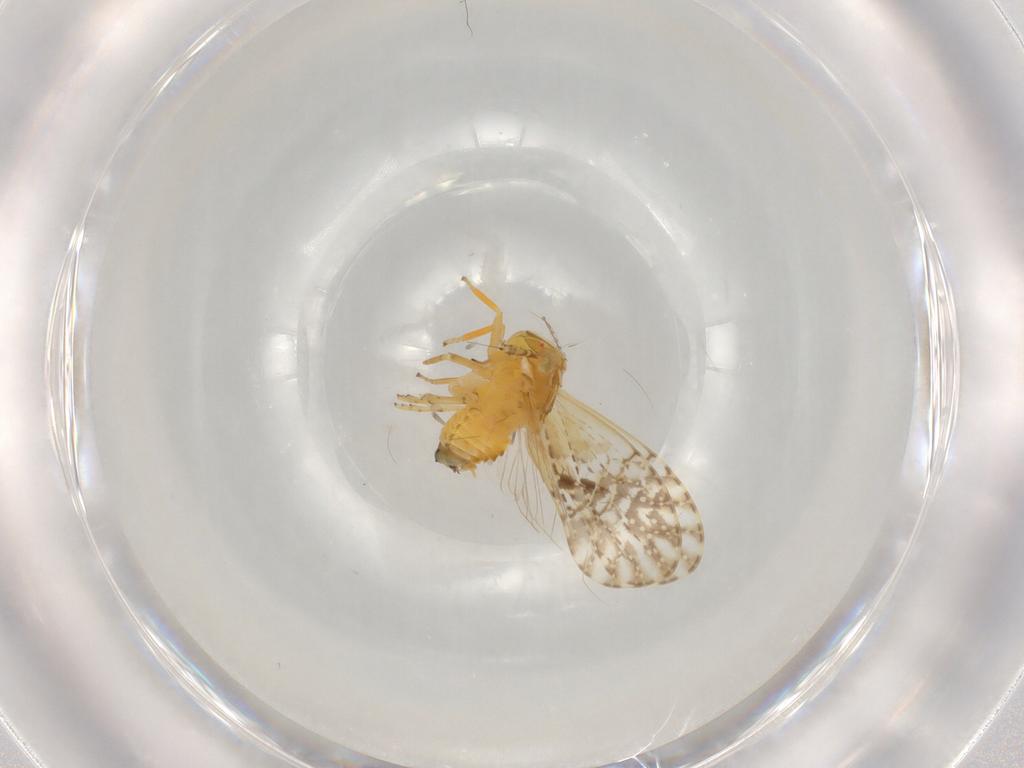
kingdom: Animalia
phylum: Arthropoda
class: Insecta
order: Hemiptera
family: Delphacidae
